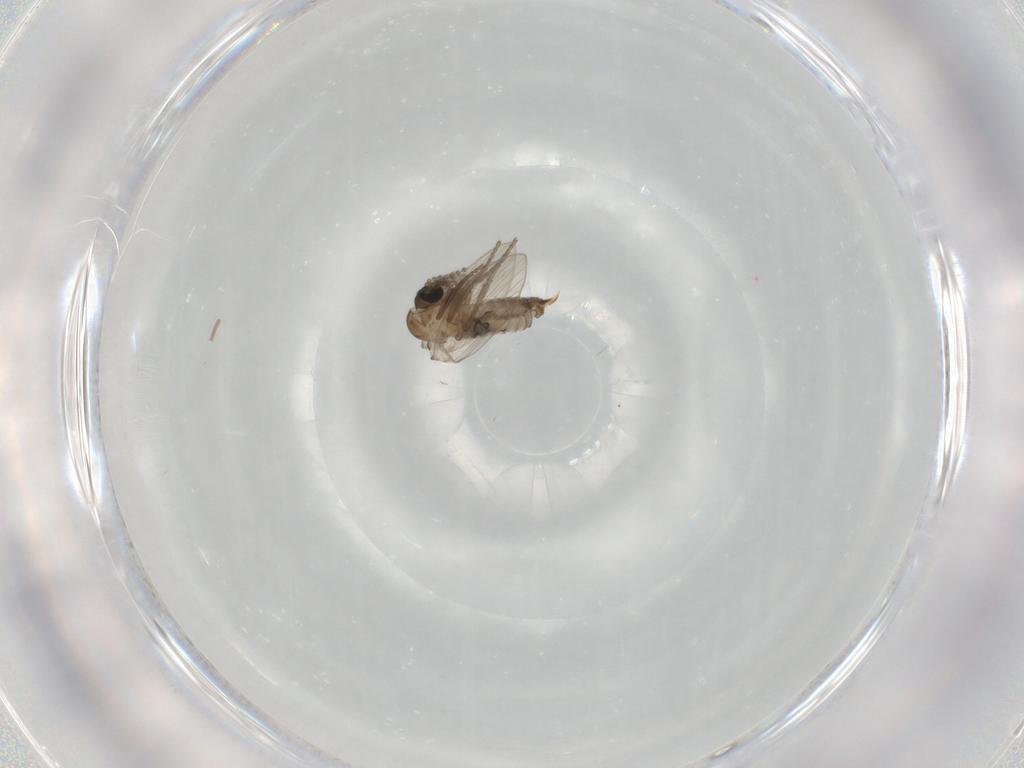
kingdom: Animalia
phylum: Arthropoda
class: Insecta
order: Diptera
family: Psychodidae
